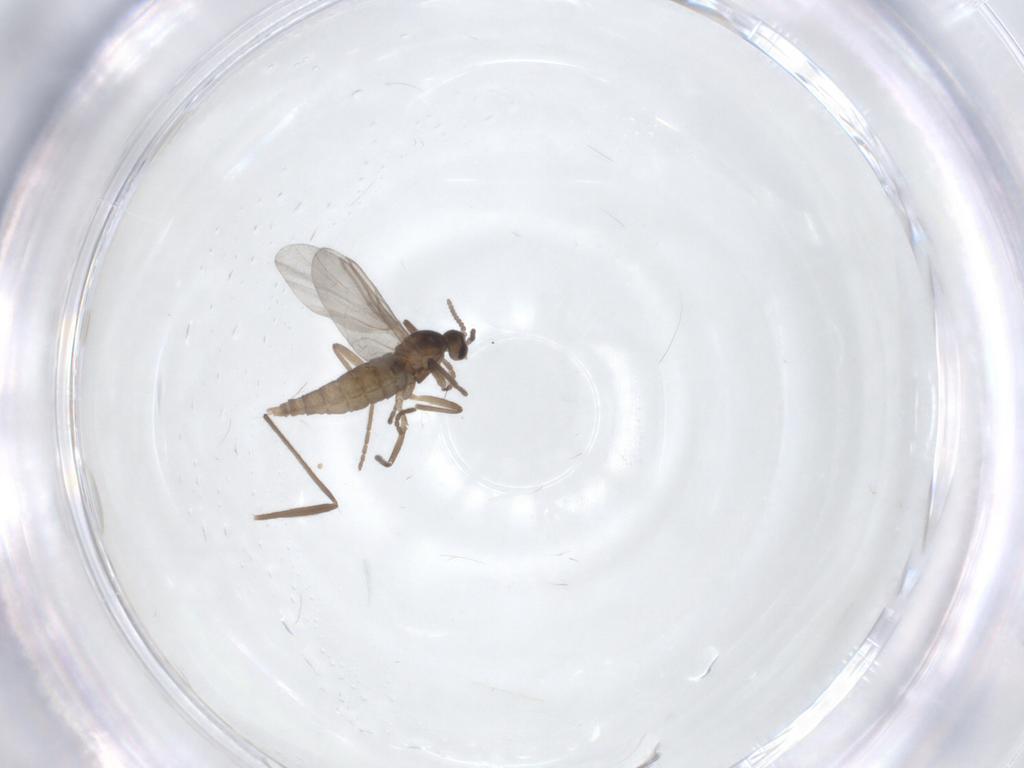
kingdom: Animalia
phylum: Arthropoda
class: Insecta
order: Diptera
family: Cecidomyiidae
